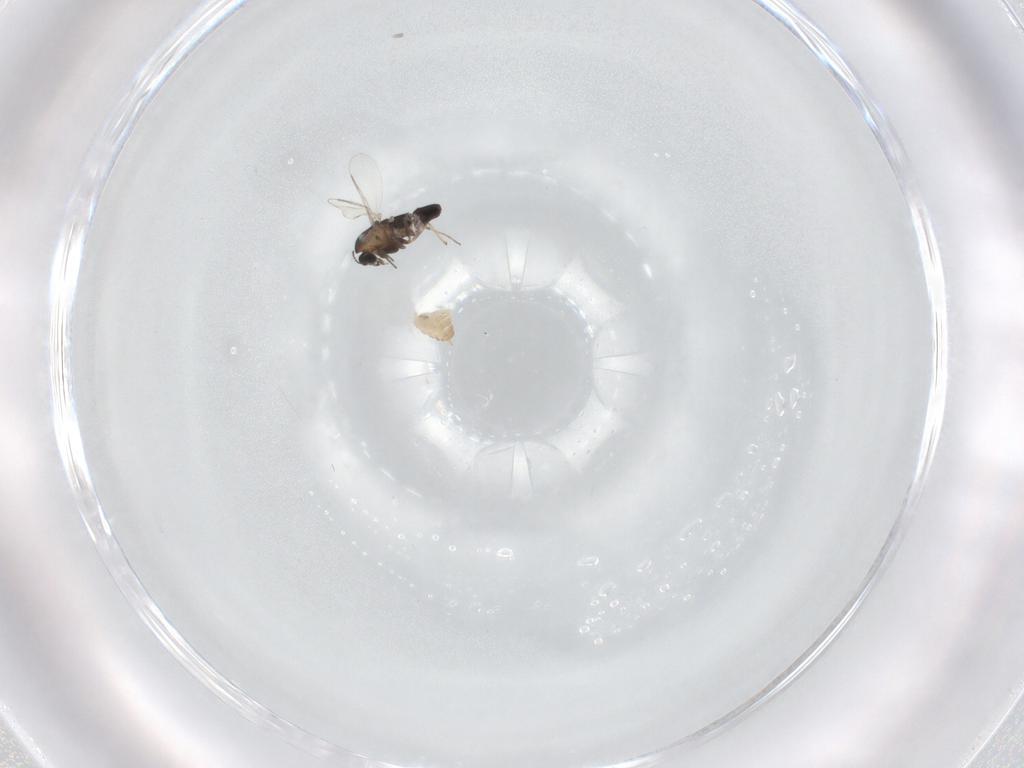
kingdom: Animalia
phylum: Arthropoda
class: Insecta
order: Diptera
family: Chironomidae
